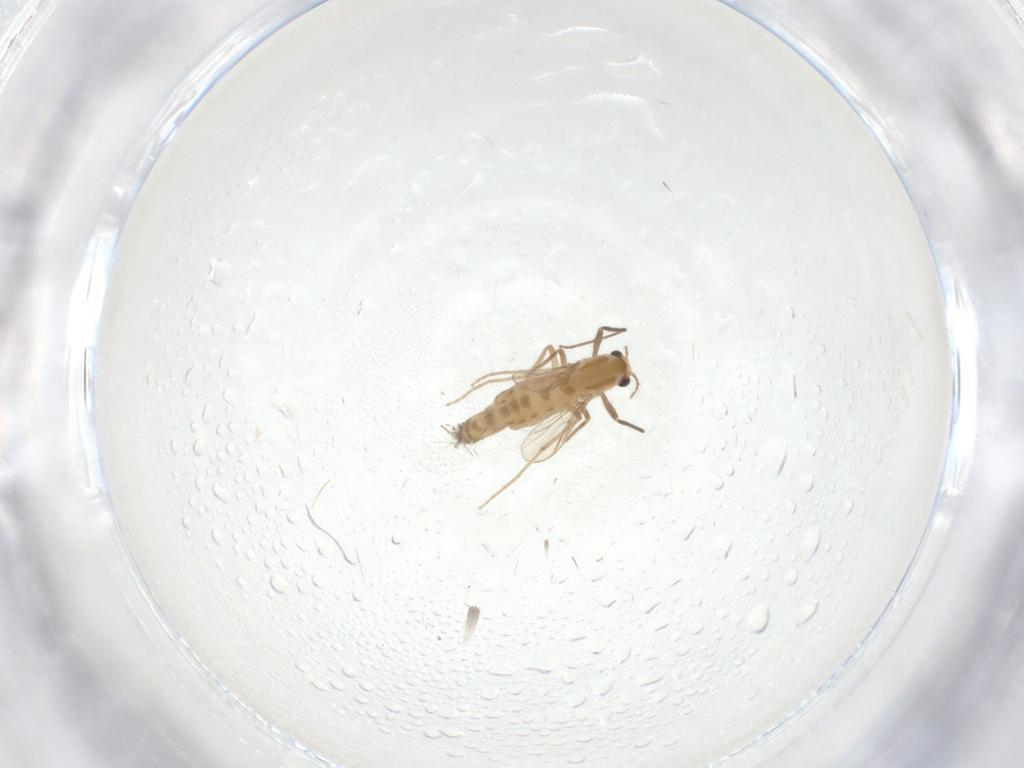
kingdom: Animalia
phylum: Arthropoda
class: Insecta
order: Diptera
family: Chironomidae
